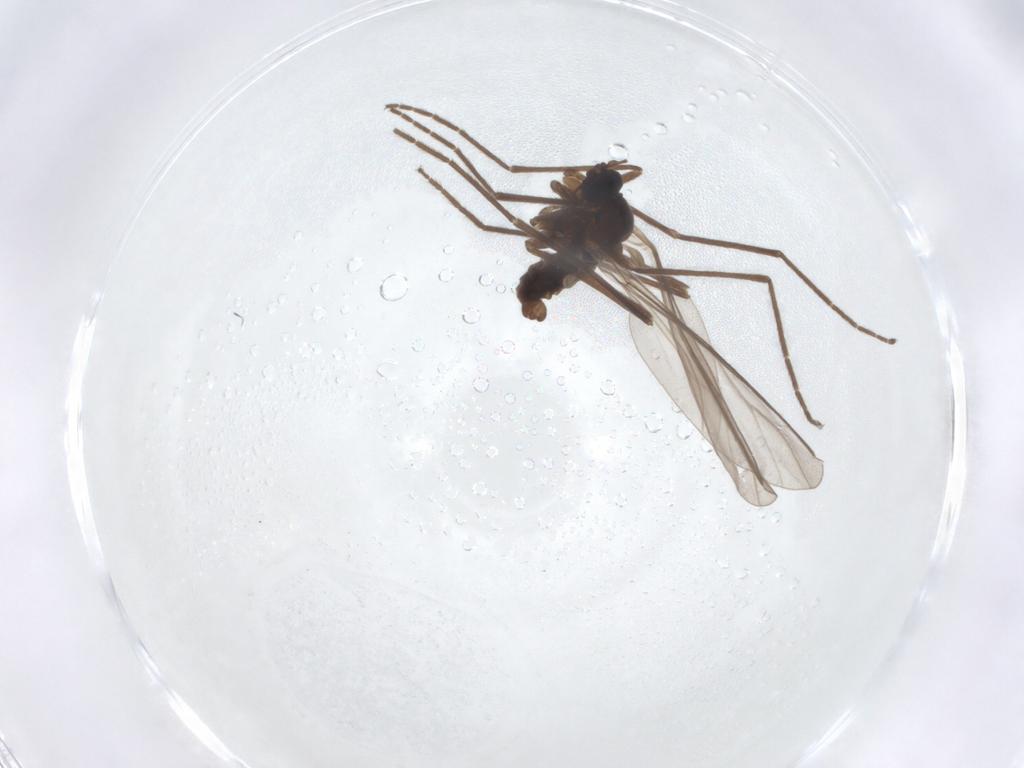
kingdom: Animalia
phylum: Arthropoda
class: Insecta
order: Diptera
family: Cecidomyiidae
